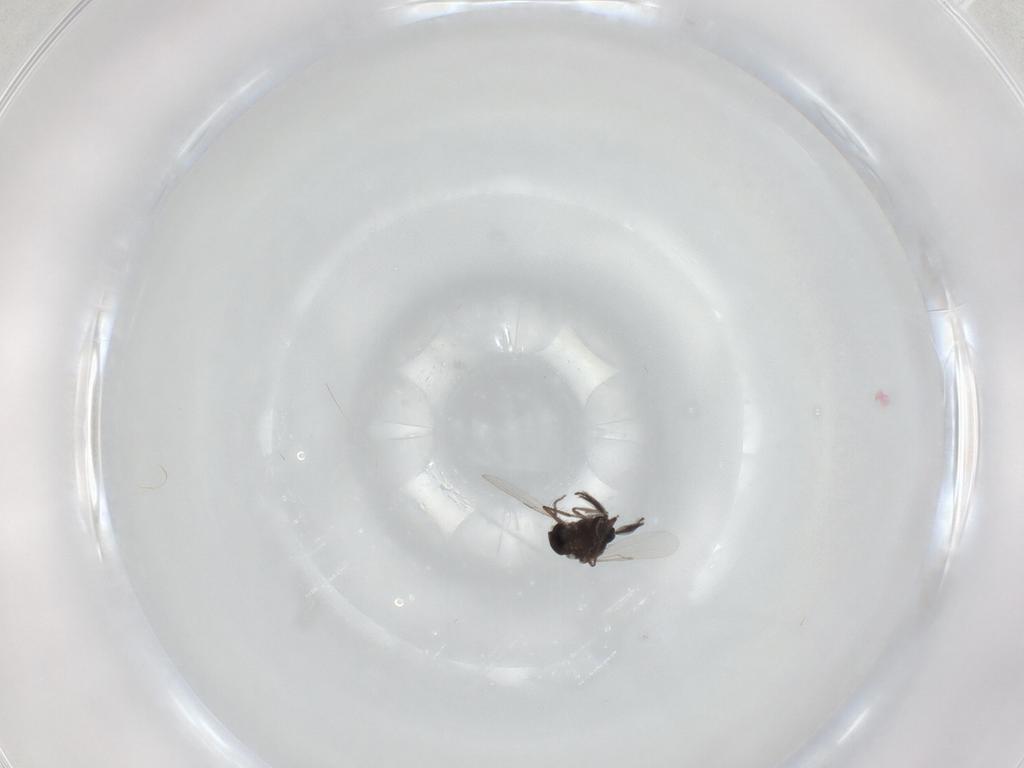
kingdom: Animalia
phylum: Arthropoda
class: Insecta
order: Diptera
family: Ceratopogonidae
